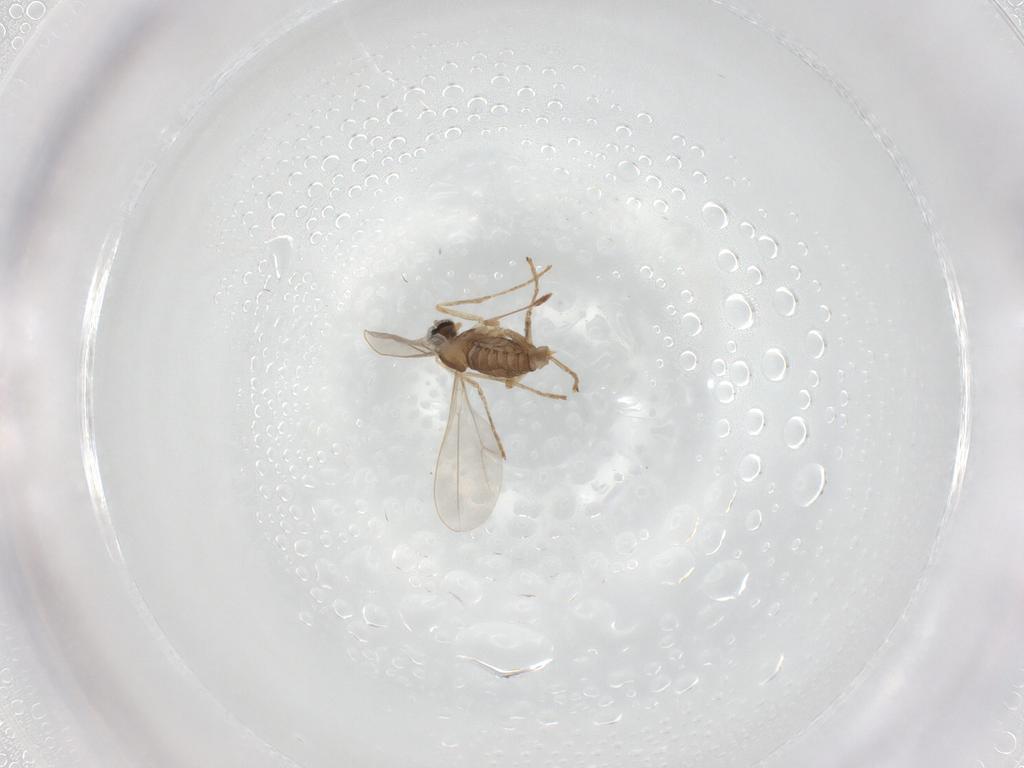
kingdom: Animalia
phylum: Arthropoda
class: Insecta
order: Diptera
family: Cecidomyiidae
